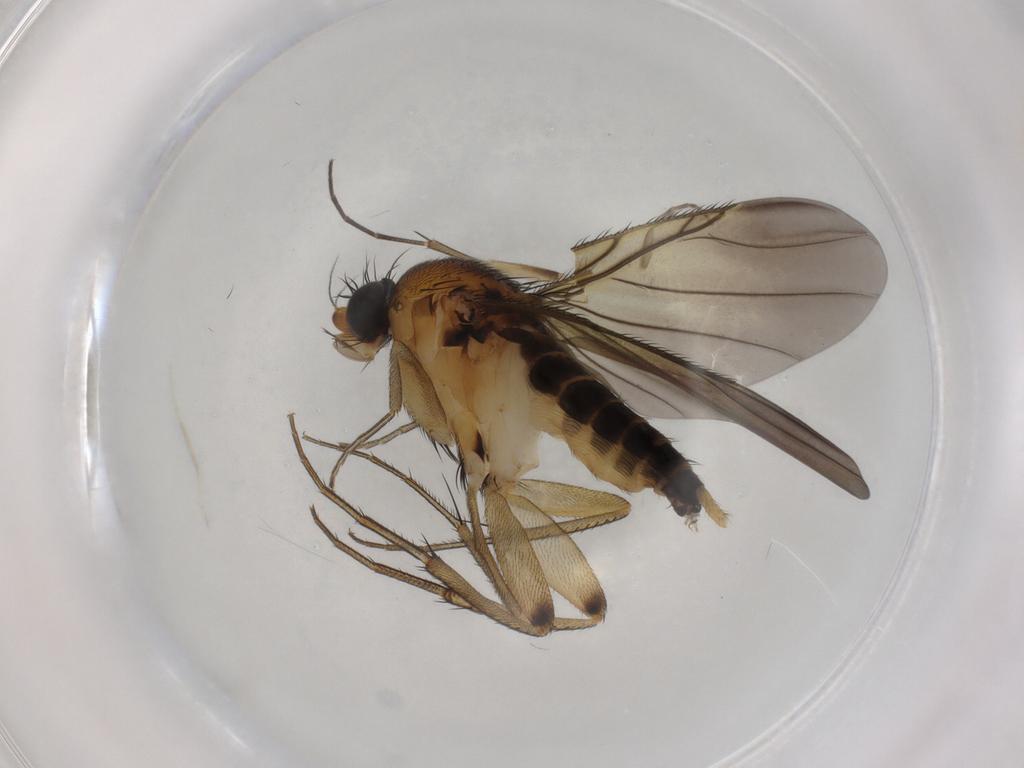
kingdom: Animalia
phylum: Arthropoda
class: Insecta
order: Diptera
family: Phoridae
